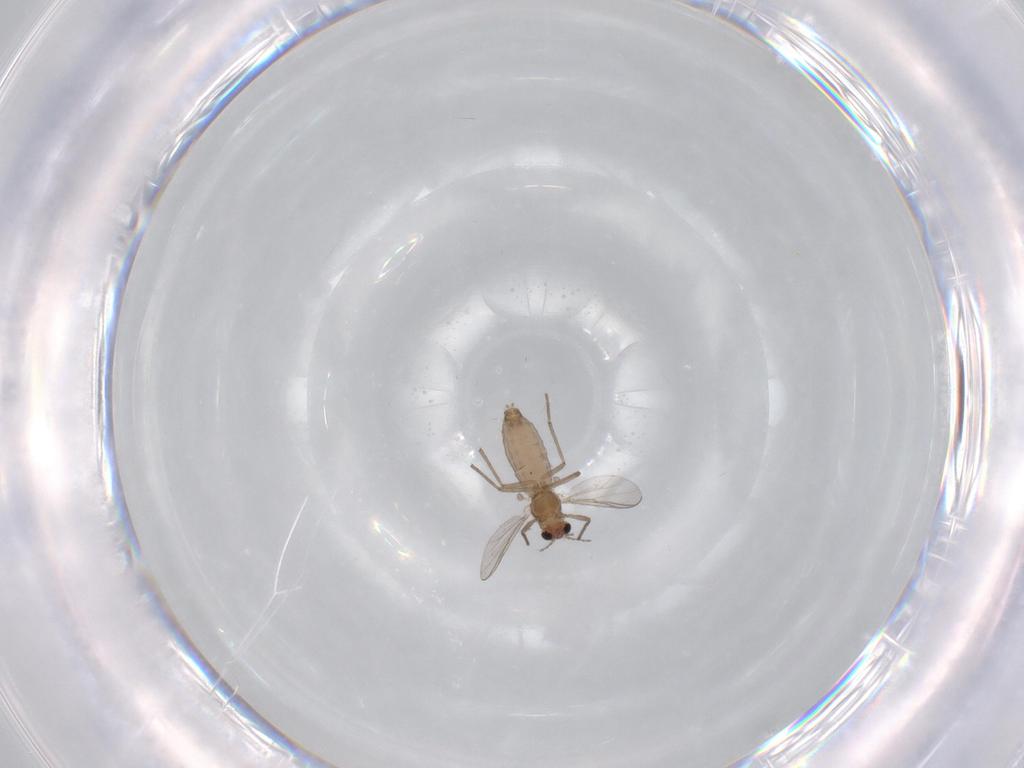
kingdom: Animalia
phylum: Arthropoda
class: Insecta
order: Diptera
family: Chironomidae
